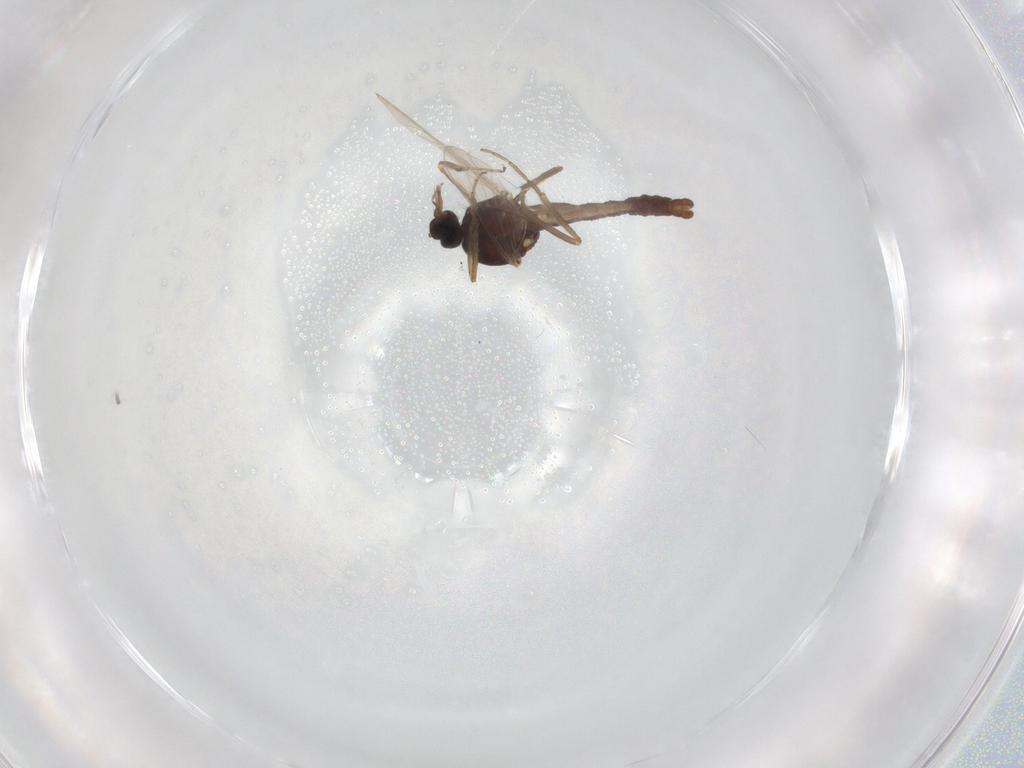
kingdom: Animalia
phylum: Arthropoda
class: Insecta
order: Diptera
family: Ceratopogonidae
